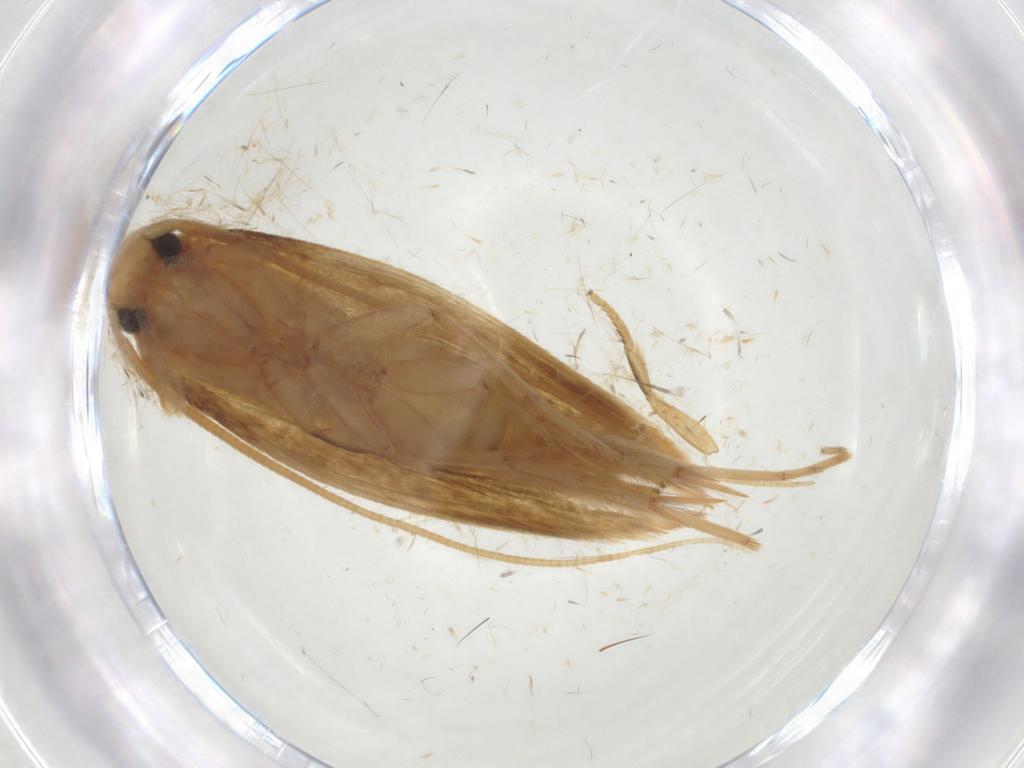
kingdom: Animalia
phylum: Arthropoda
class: Insecta
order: Lepidoptera
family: Tineidae
